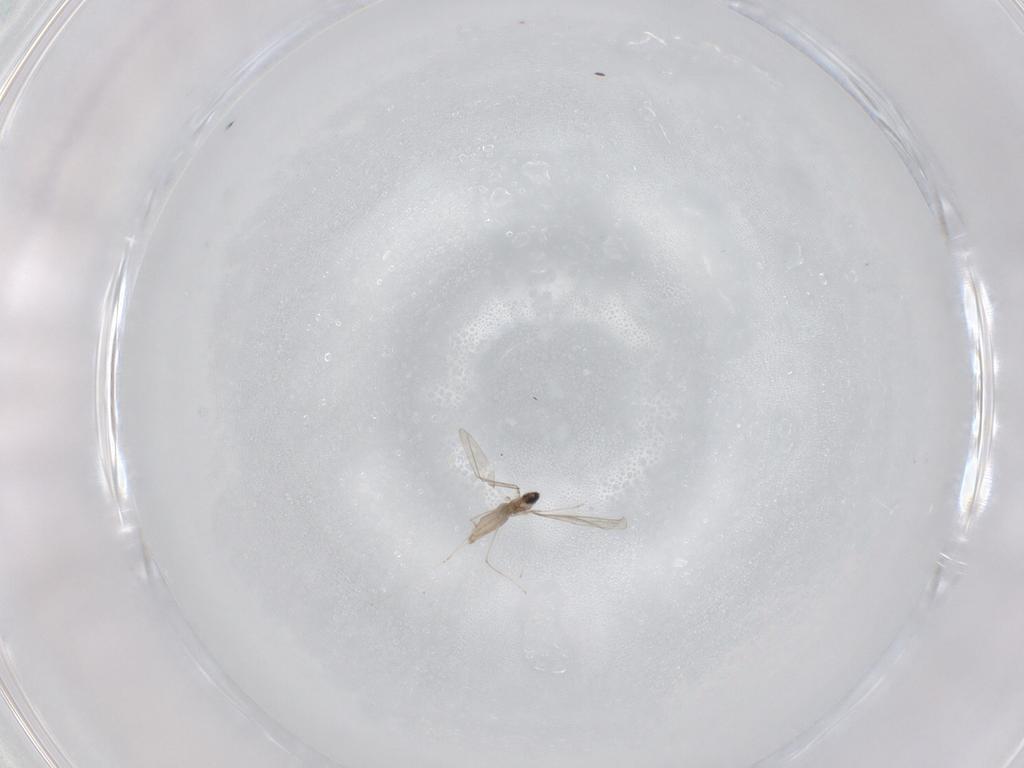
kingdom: Animalia
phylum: Arthropoda
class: Insecta
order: Diptera
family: Cecidomyiidae
